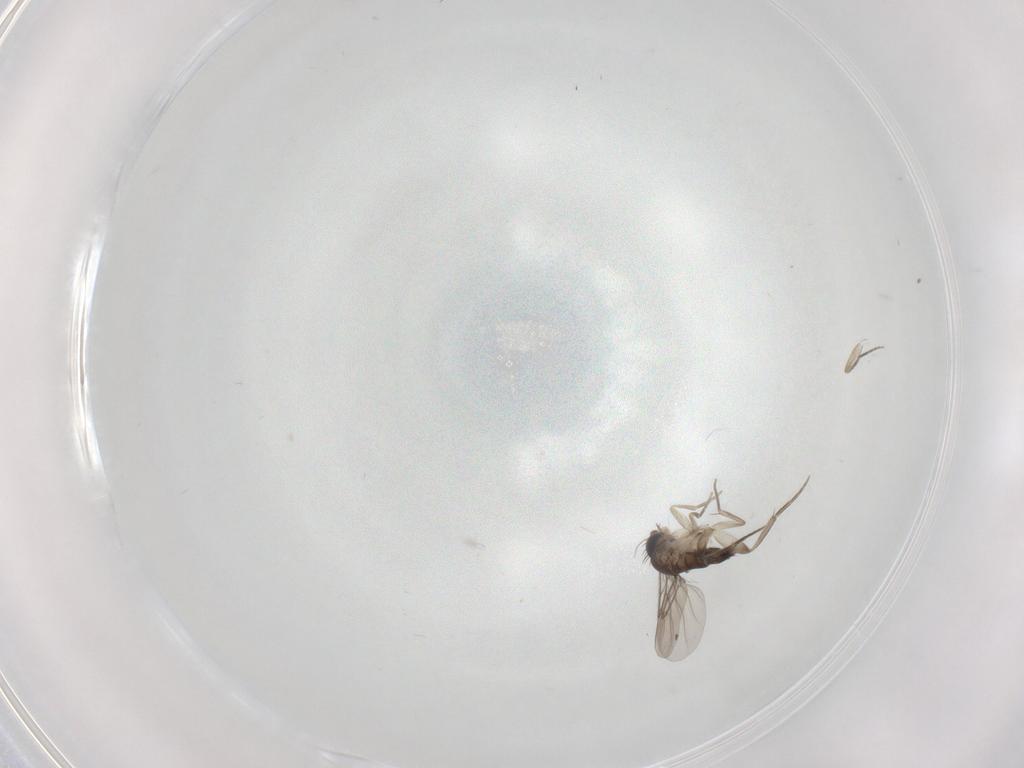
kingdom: Animalia
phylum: Arthropoda
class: Insecta
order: Diptera
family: Phoridae
